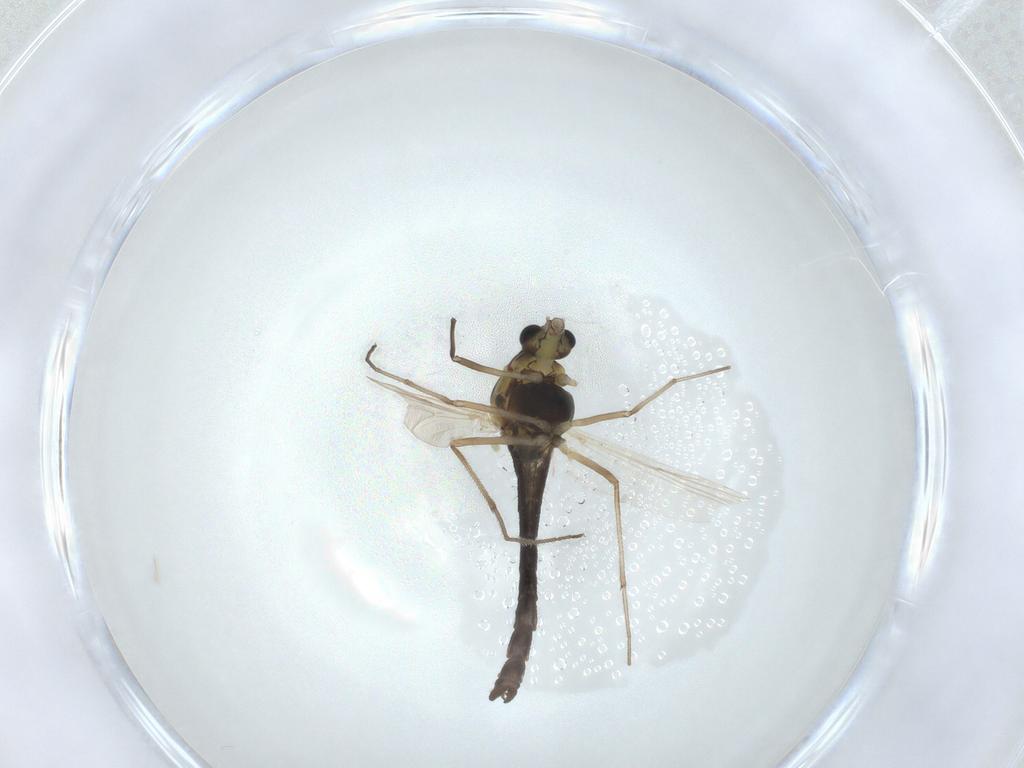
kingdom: Animalia
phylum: Arthropoda
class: Insecta
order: Diptera
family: Chironomidae
